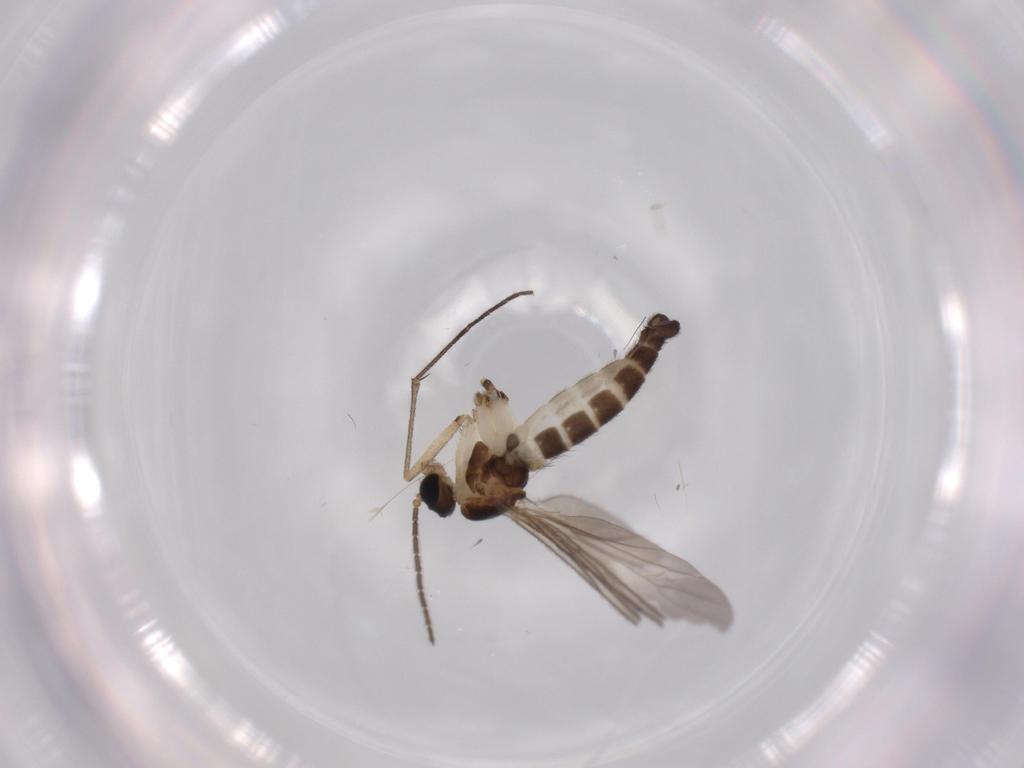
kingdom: Animalia
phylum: Arthropoda
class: Insecta
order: Diptera
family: Sciaridae
